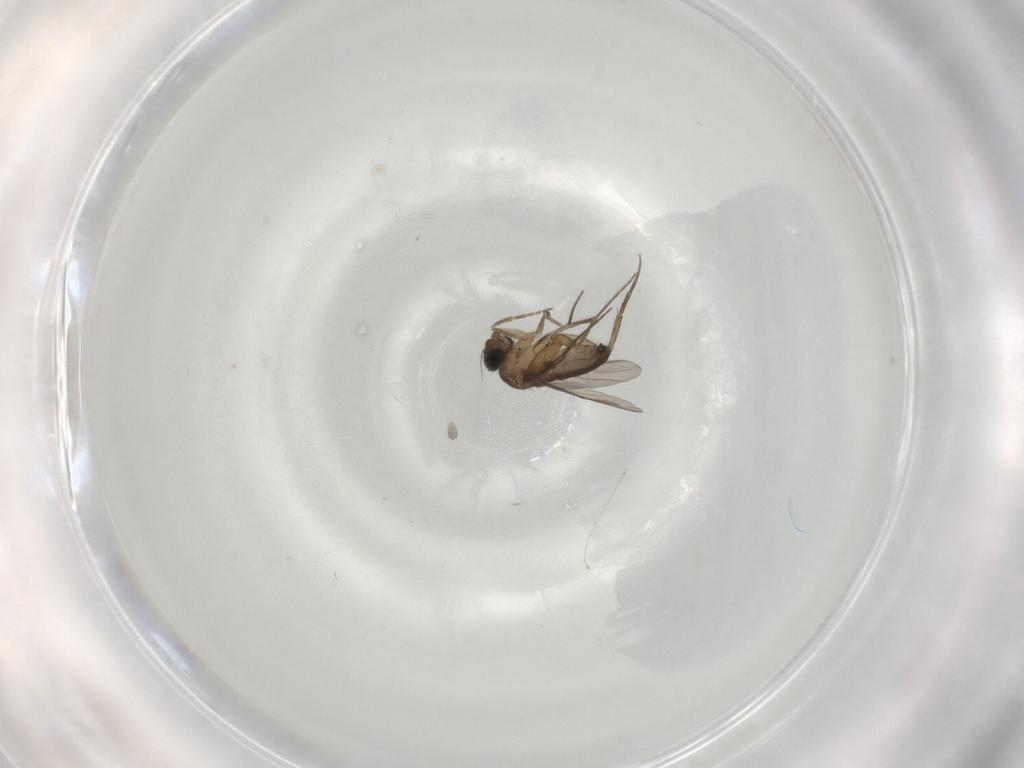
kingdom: Animalia
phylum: Arthropoda
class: Insecta
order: Diptera
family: Phoridae
